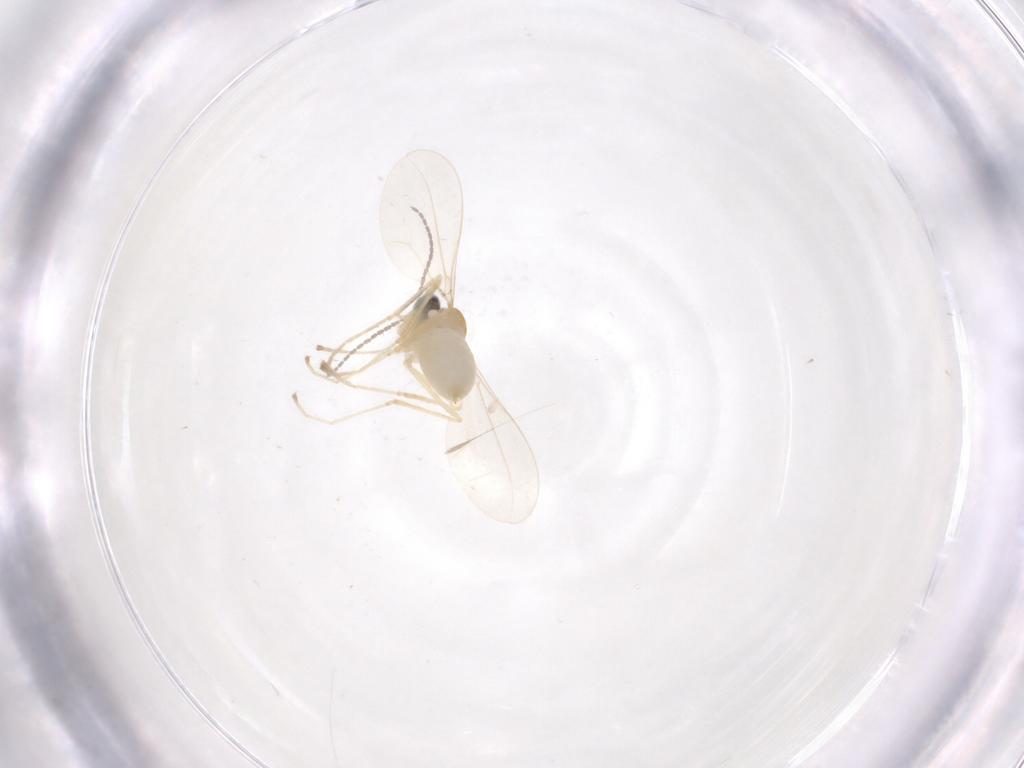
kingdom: Animalia
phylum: Arthropoda
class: Insecta
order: Diptera
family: Cecidomyiidae
